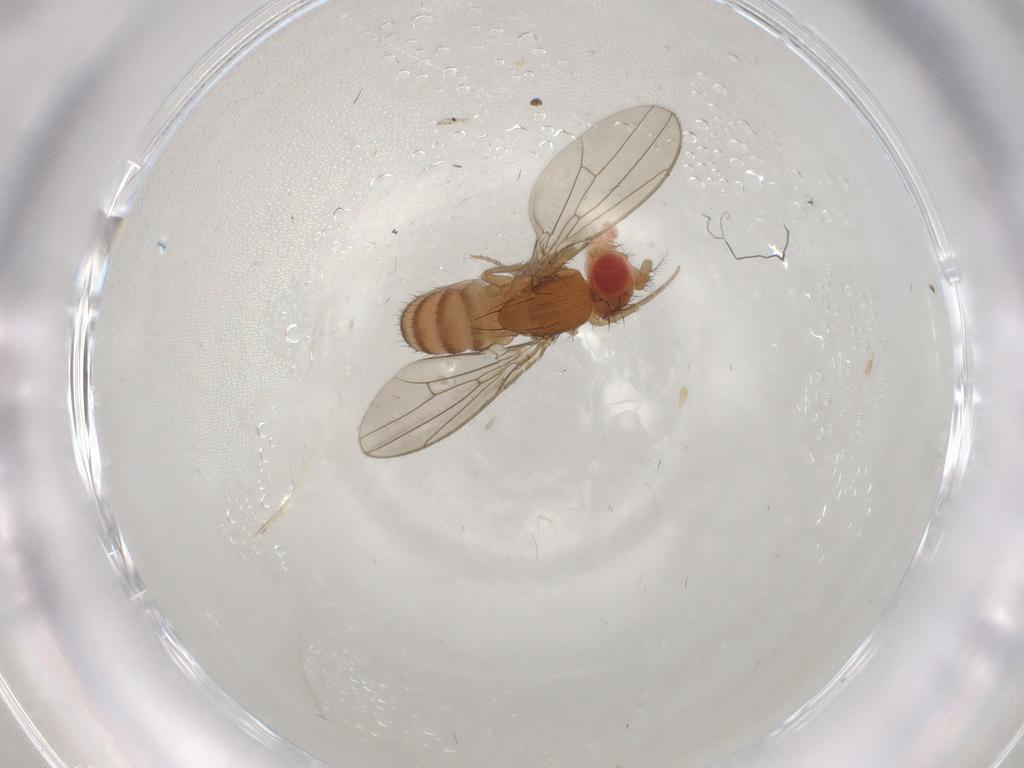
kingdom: Animalia
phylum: Arthropoda
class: Insecta
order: Diptera
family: Drosophilidae
